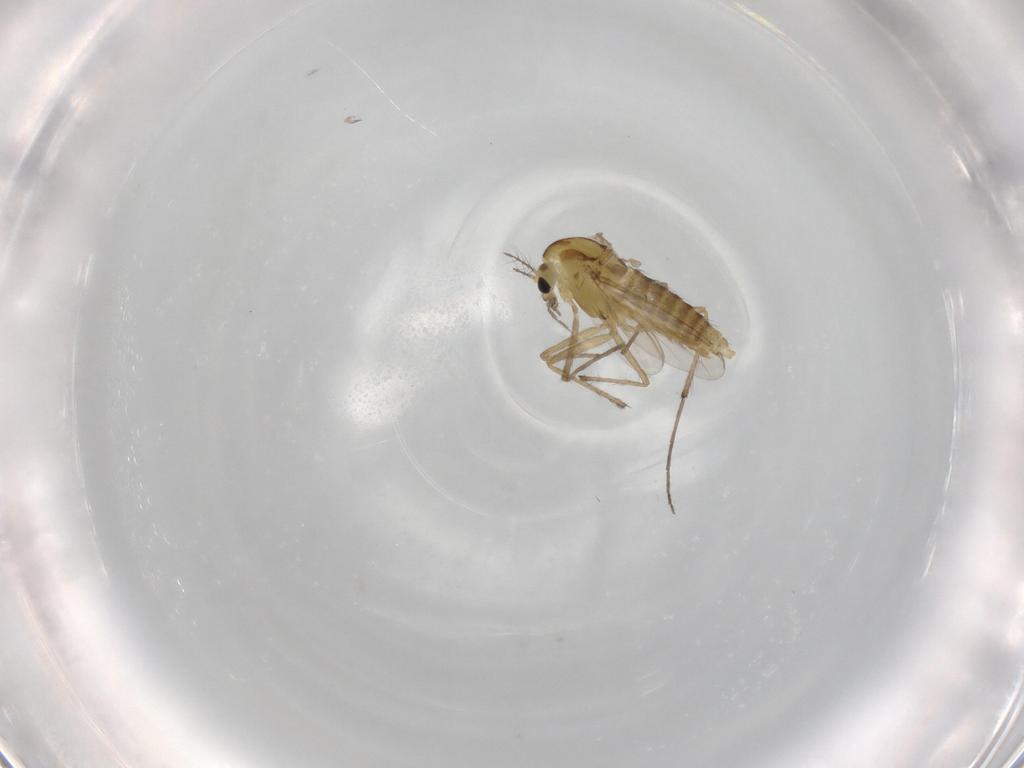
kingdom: Animalia
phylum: Arthropoda
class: Insecta
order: Diptera
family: Chironomidae
